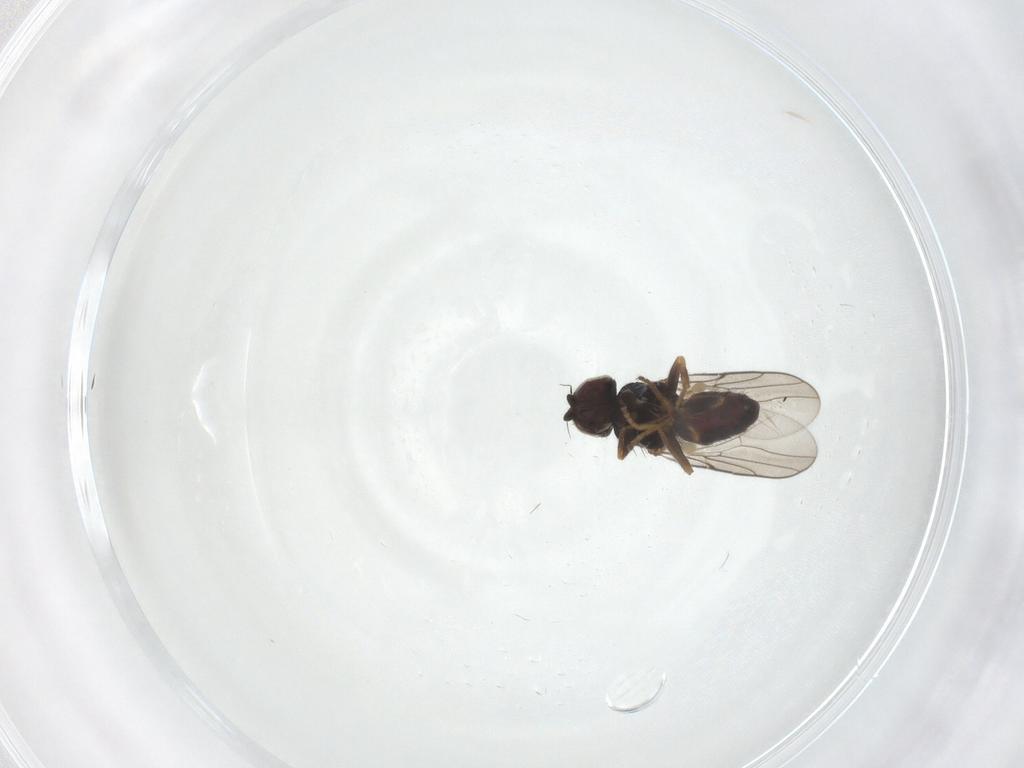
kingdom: Animalia
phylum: Arthropoda
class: Insecta
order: Diptera
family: Chloropidae
